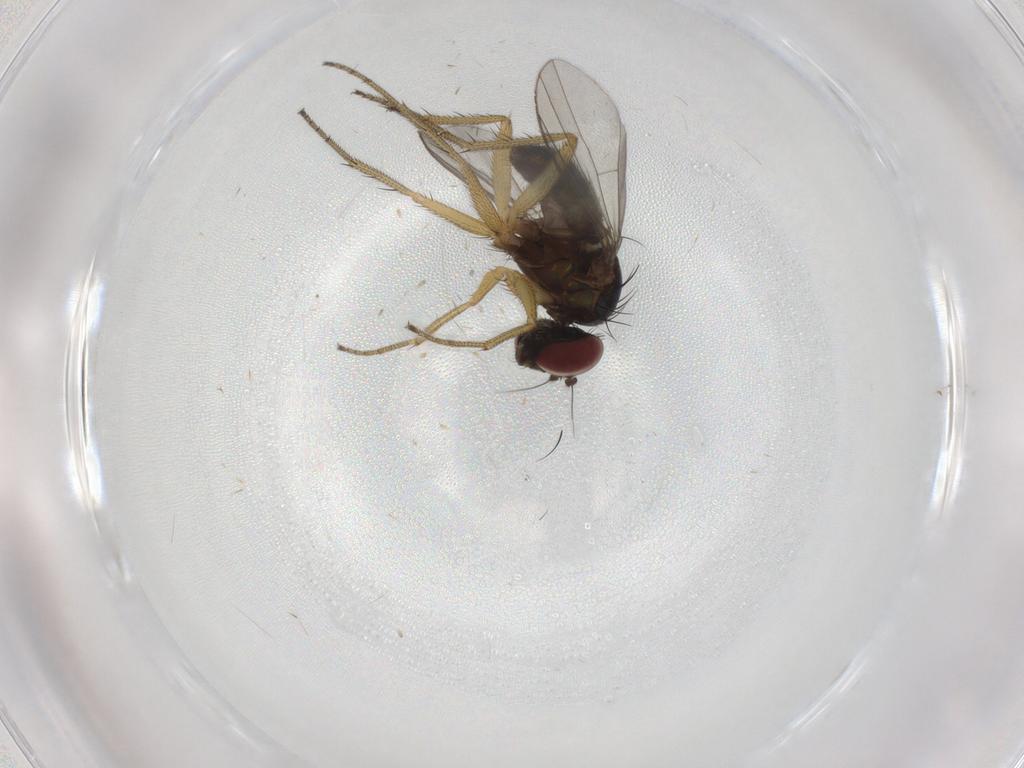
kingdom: Animalia
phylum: Arthropoda
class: Insecta
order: Diptera
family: Dolichopodidae
